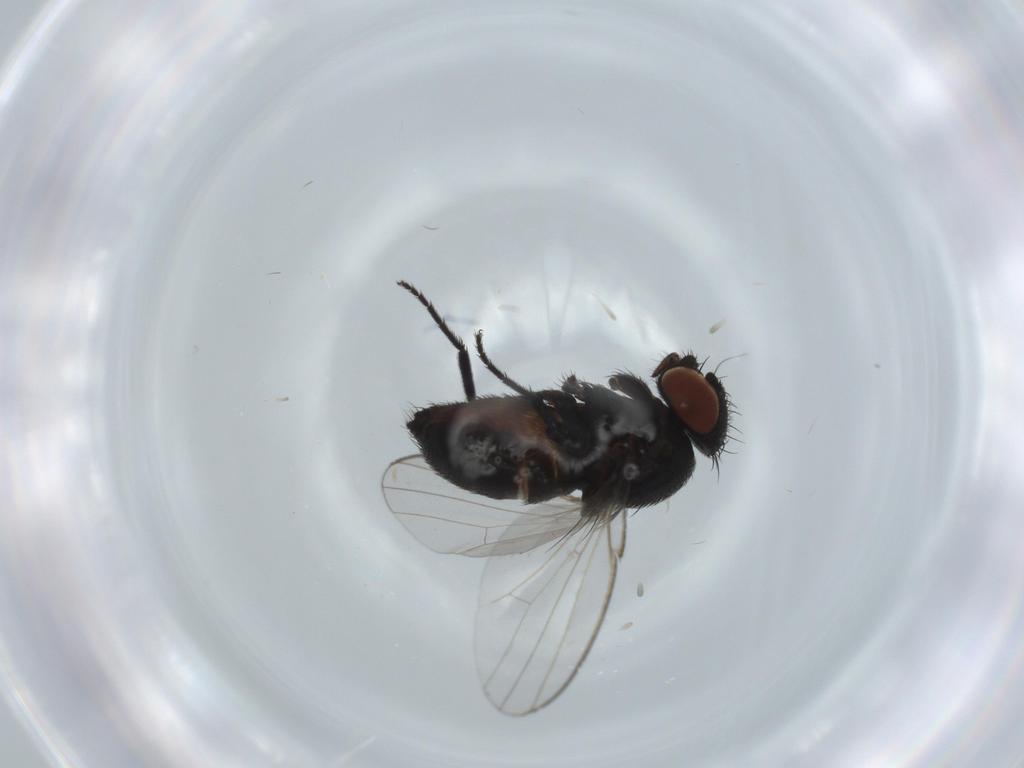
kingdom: Animalia
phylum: Arthropoda
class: Insecta
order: Diptera
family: Milichiidae
